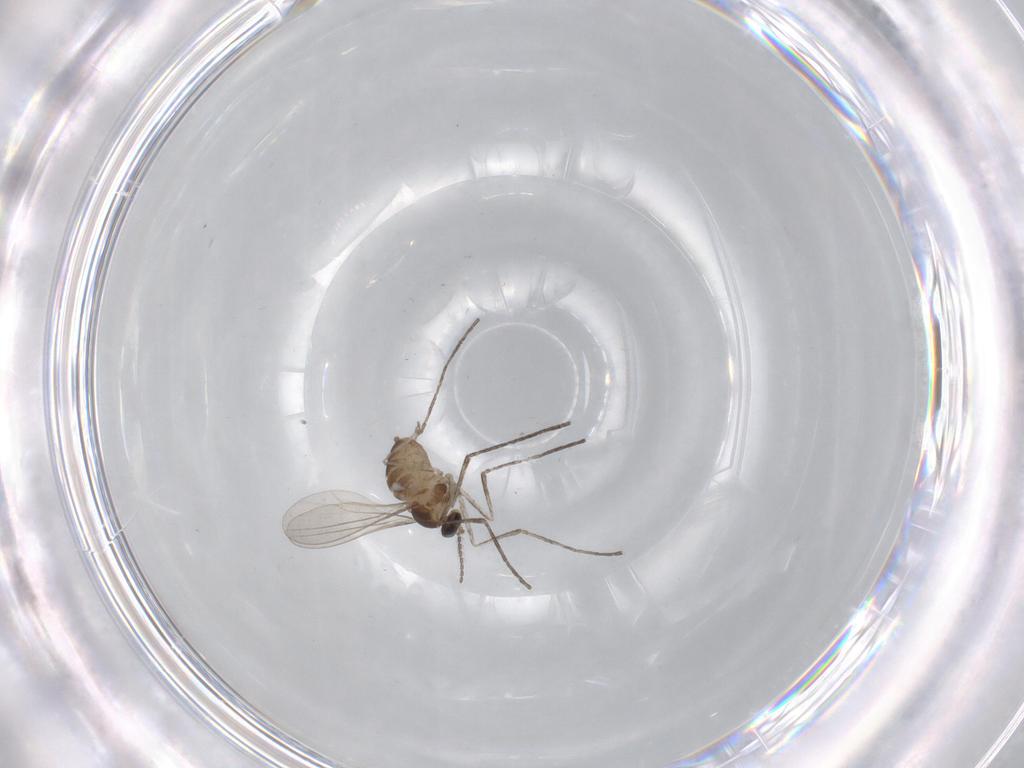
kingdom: Animalia
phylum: Arthropoda
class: Insecta
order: Diptera
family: Cecidomyiidae
